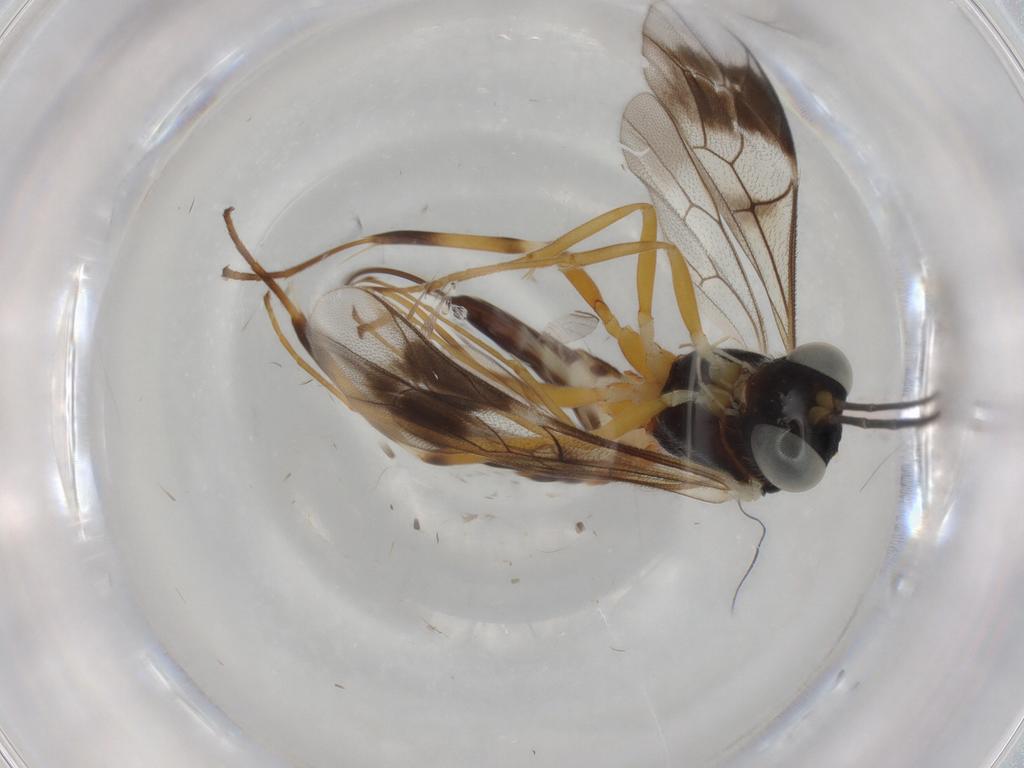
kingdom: Animalia
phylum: Arthropoda
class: Insecta
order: Hymenoptera
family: Ichneumonidae
